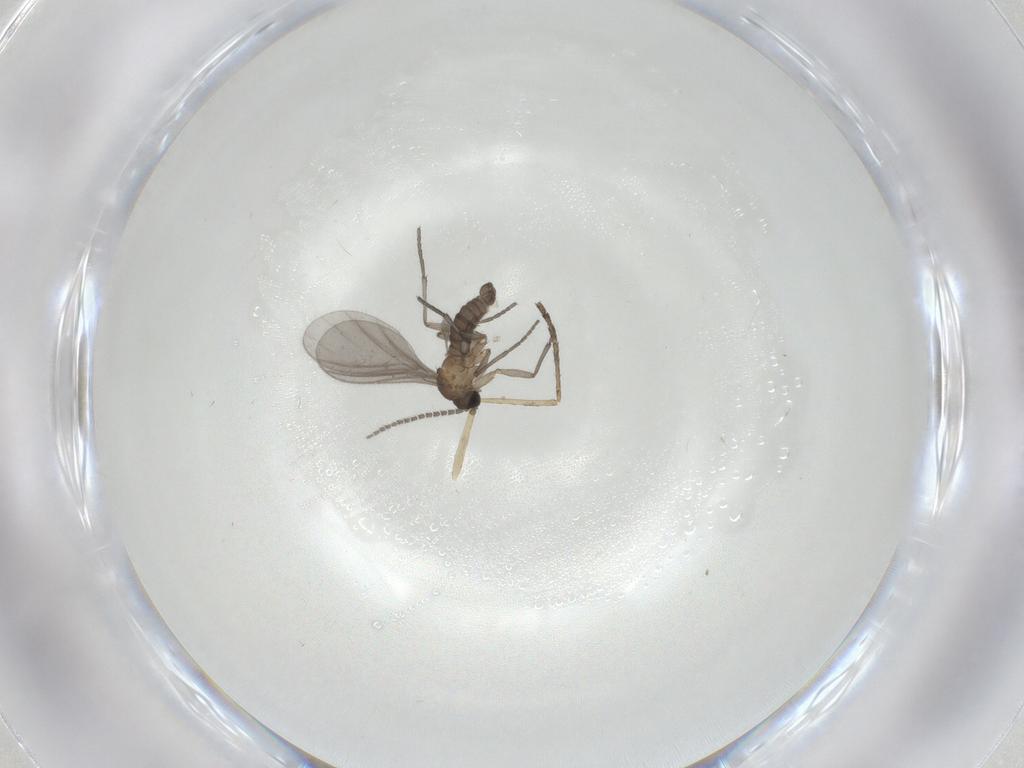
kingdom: Animalia
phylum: Arthropoda
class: Insecta
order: Diptera
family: Sciaridae
